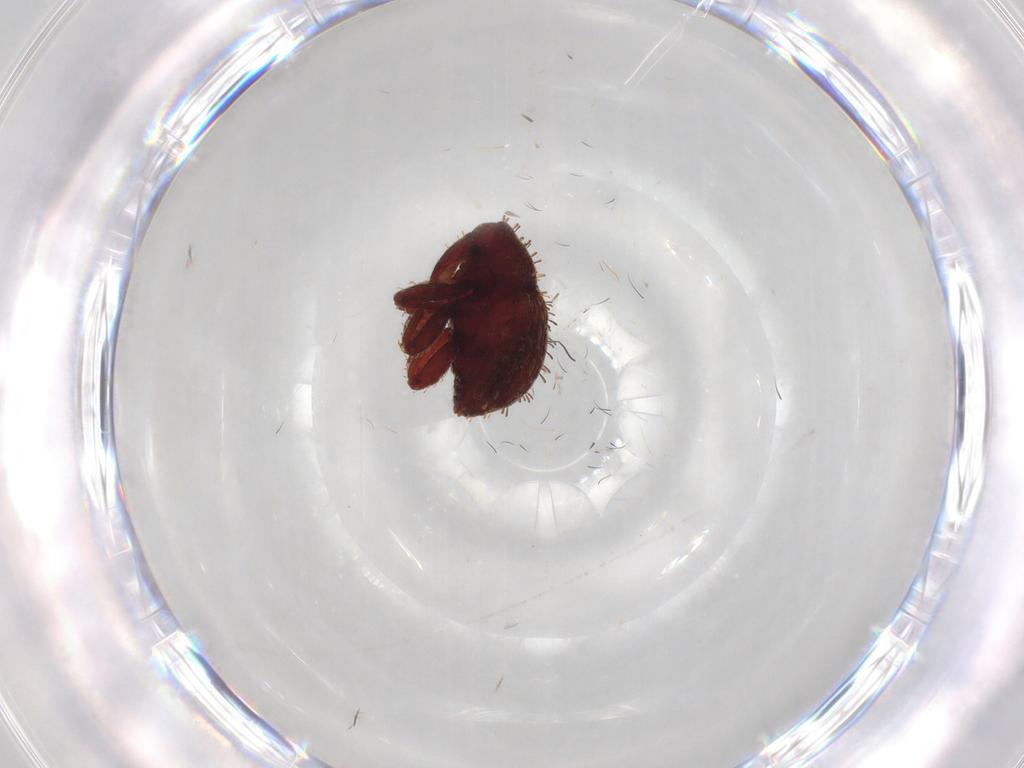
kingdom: Animalia
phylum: Arthropoda
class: Insecta
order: Coleoptera
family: Curculionidae
